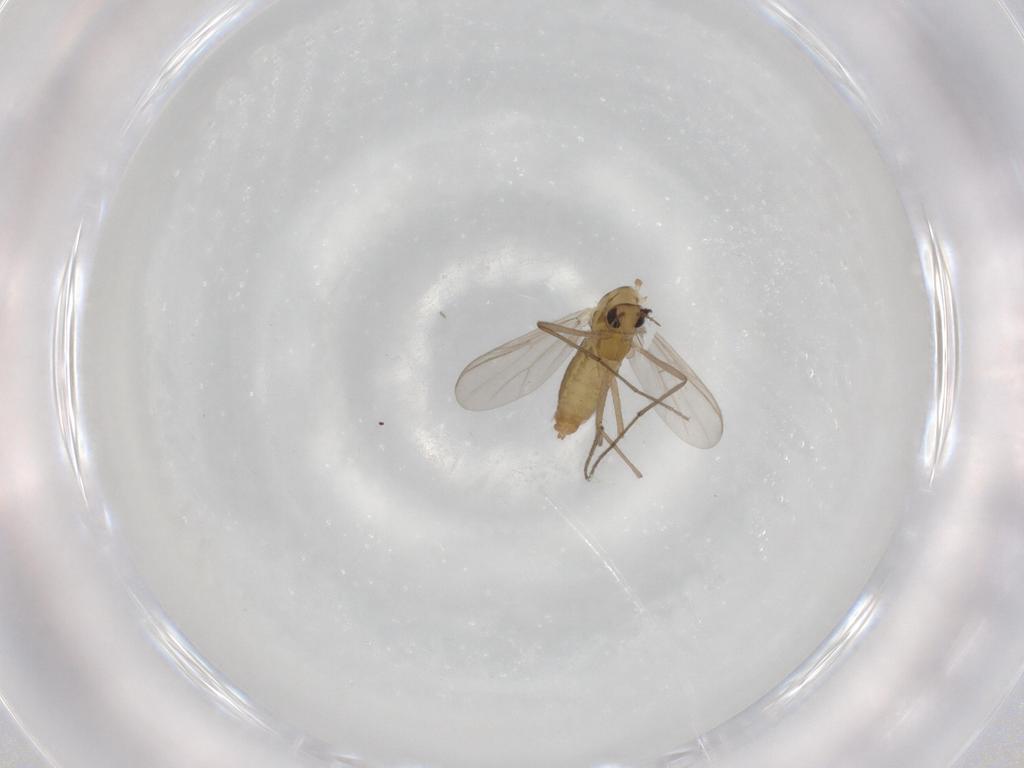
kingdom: Animalia
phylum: Arthropoda
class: Insecta
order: Diptera
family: Chironomidae
